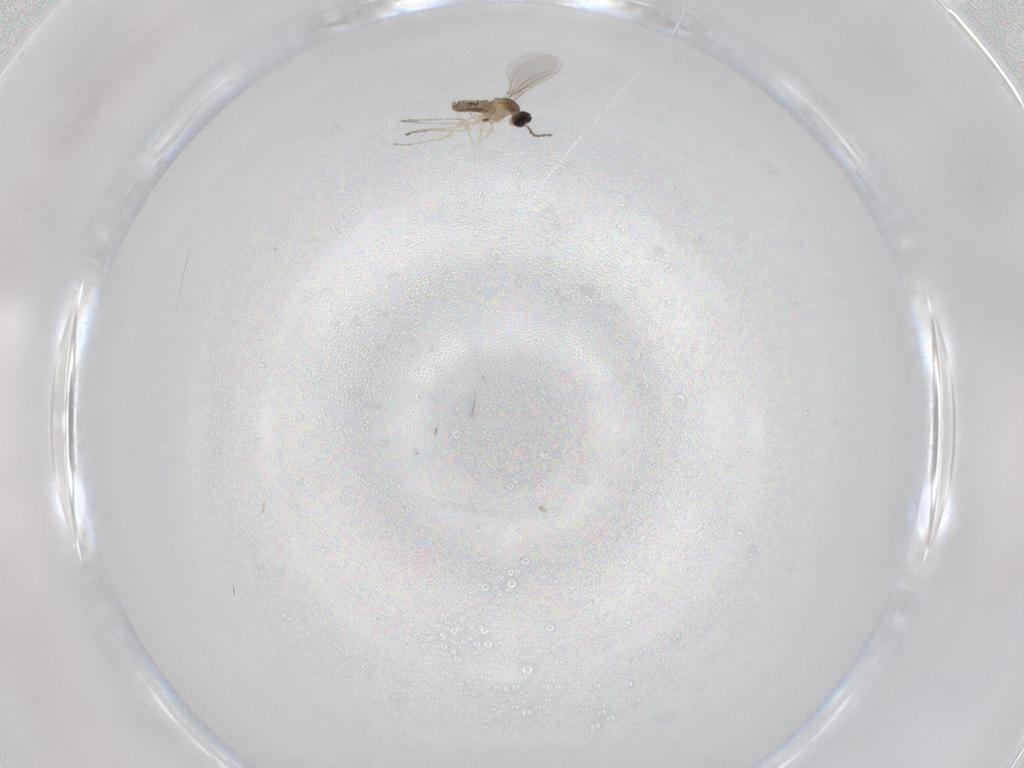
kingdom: Animalia
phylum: Arthropoda
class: Insecta
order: Diptera
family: Cecidomyiidae
